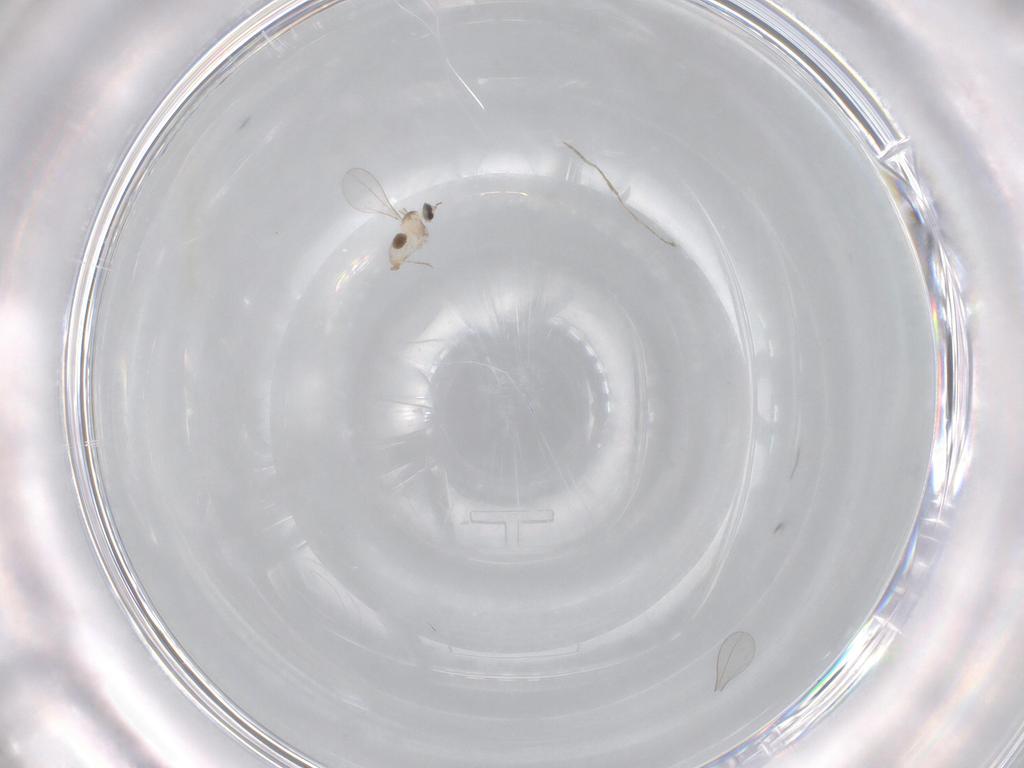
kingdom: Animalia
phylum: Arthropoda
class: Insecta
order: Diptera
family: Cecidomyiidae
